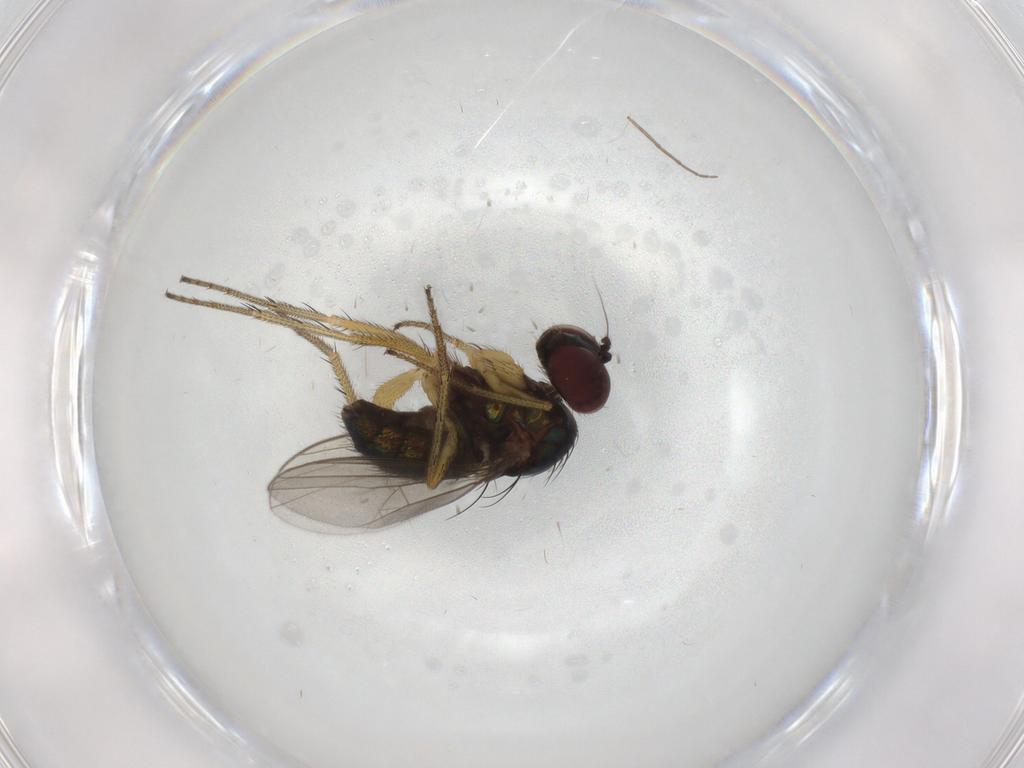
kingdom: Animalia
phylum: Arthropoda
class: Insecta
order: Diptera
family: Dolichopodidae
